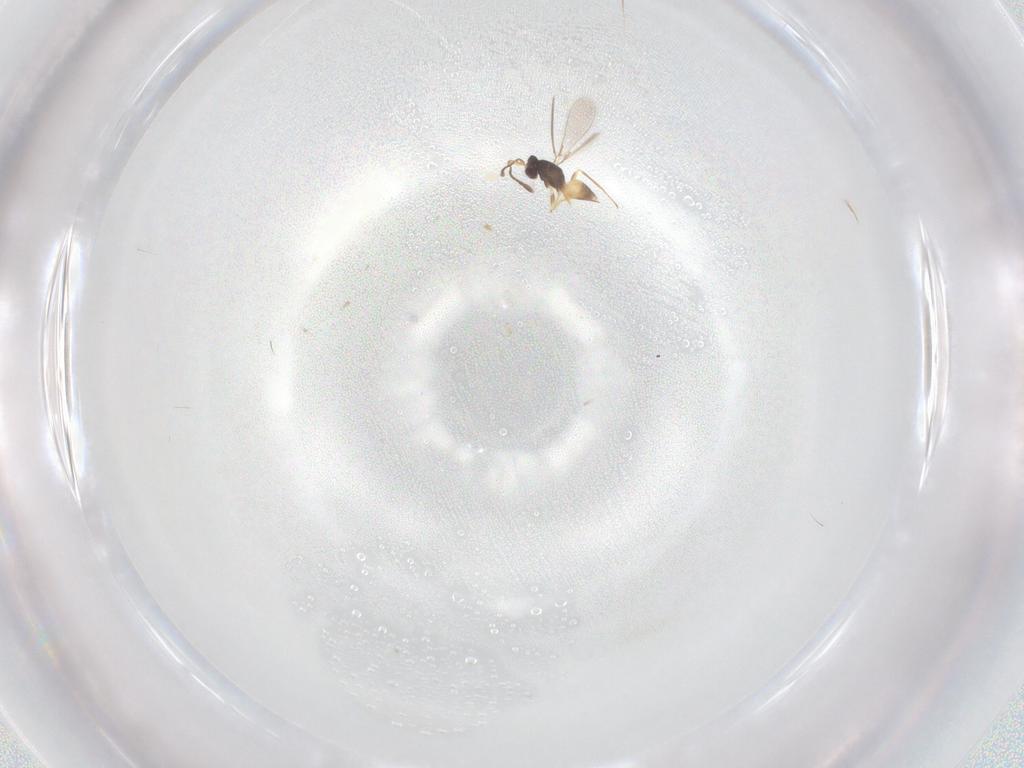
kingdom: Animalia
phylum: Arthropoda
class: Insecta
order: Hymenoptera
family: Mymaridae
